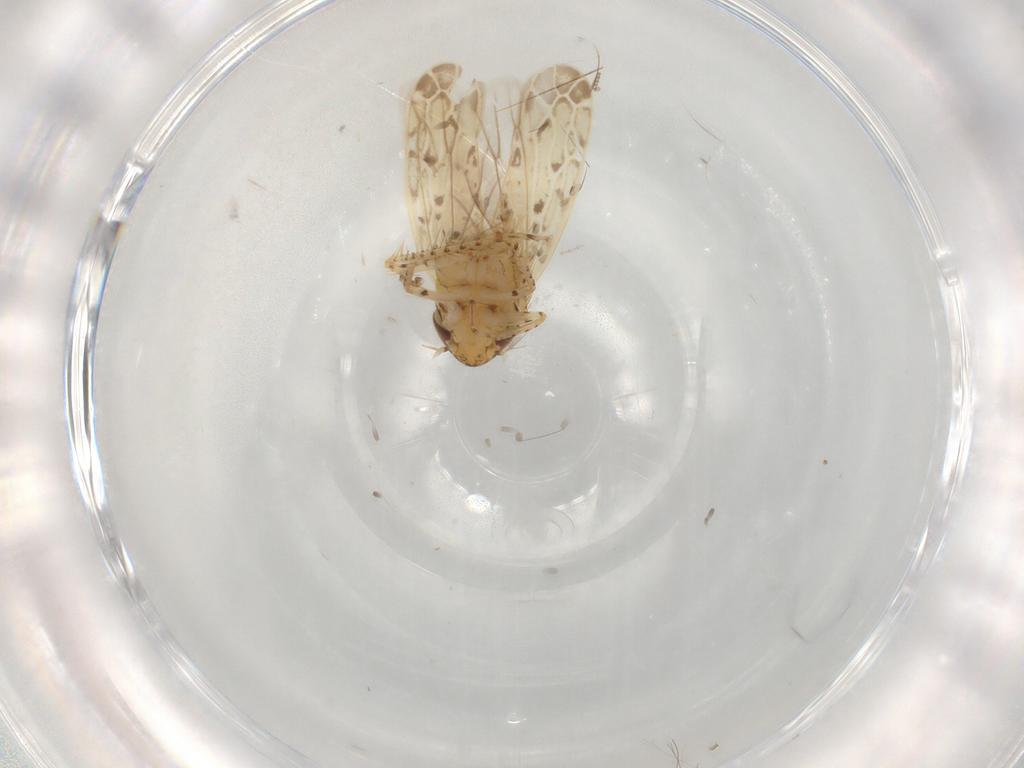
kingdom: Animalia
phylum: Arthropoda
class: Insecta
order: Hemiptera
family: Cicadellidae
